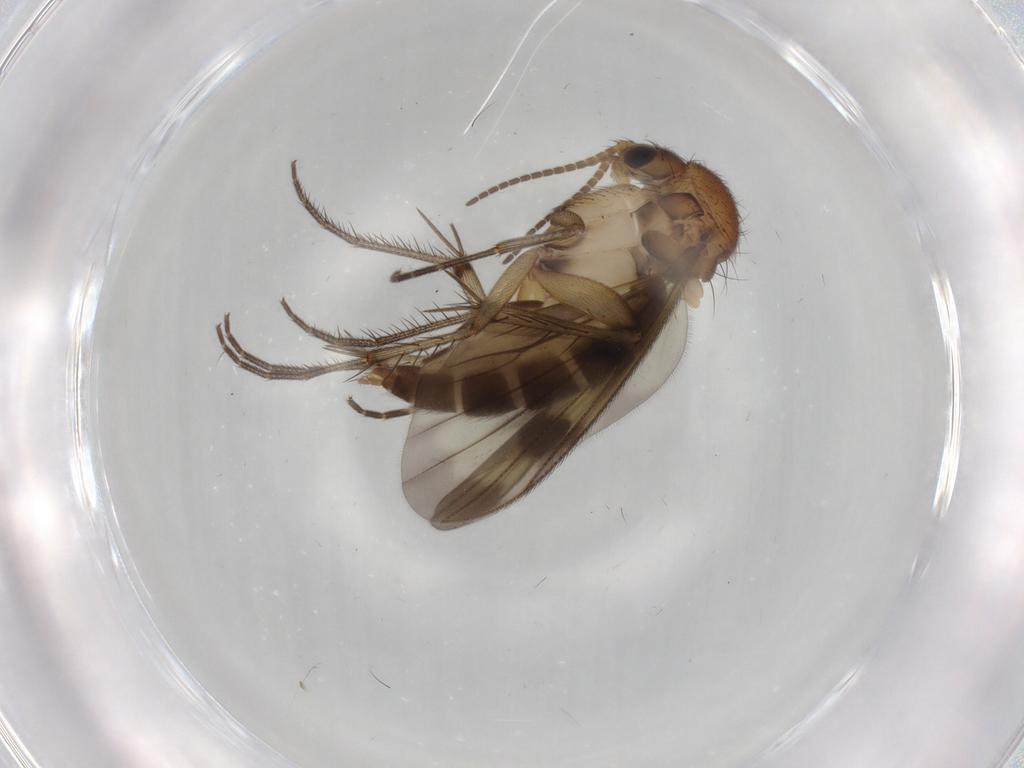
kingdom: Animalia
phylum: Arthropoda
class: Insecta
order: Diptera
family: Mycetophilidae
